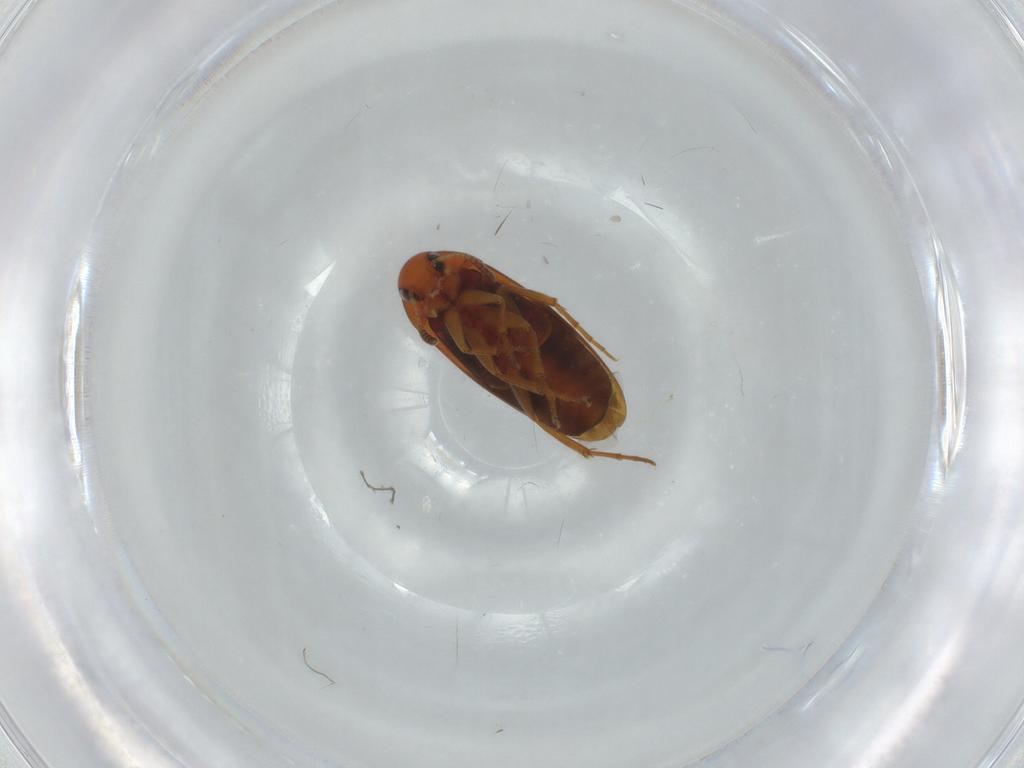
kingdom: Animalia
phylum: Arthropoda
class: Insecta
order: Coleoptera
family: Scraptiidae
